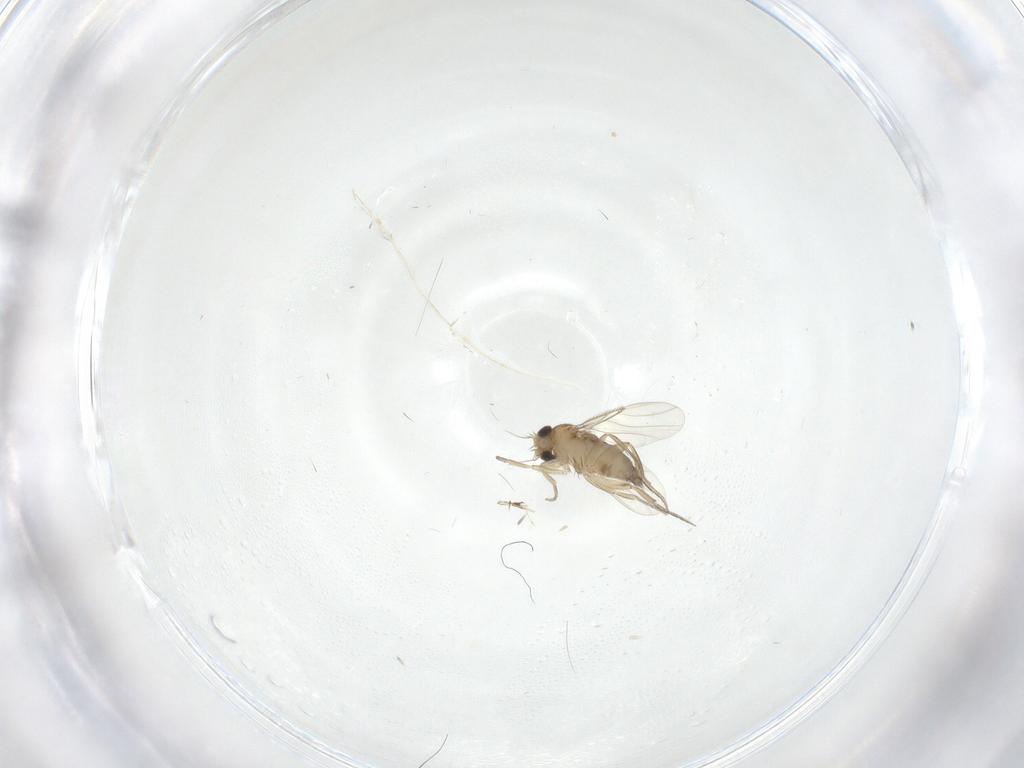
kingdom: Animalia
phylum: Arthropoda
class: Insecta
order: Diptera
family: Phoridae
